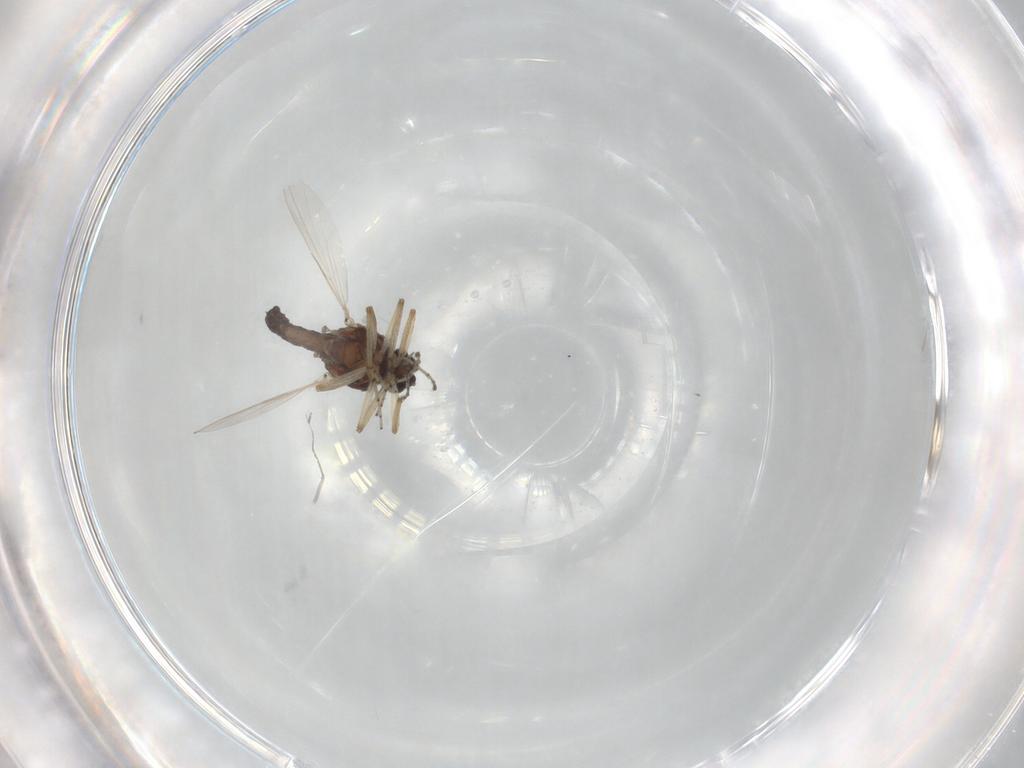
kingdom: Animalia
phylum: Arthropoda
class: Insecta
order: Diptera
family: Ceratopogonidae
